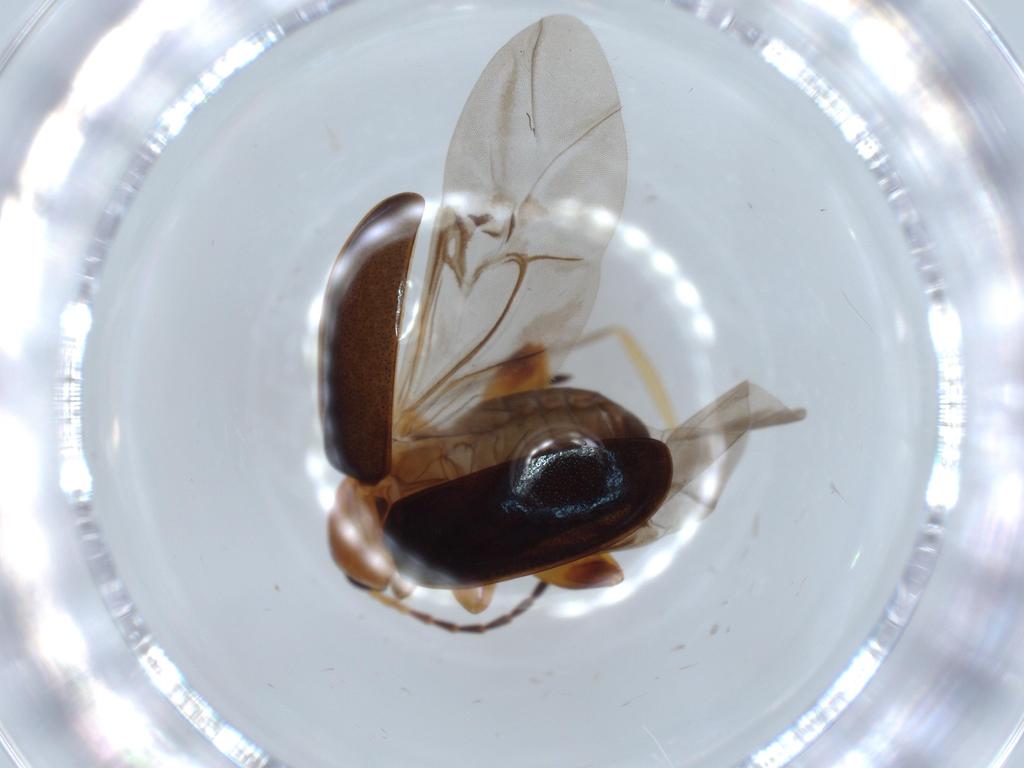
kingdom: Animalia
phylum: Arthropoda
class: Insecta
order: Coleoptera
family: Chrysomelidae
